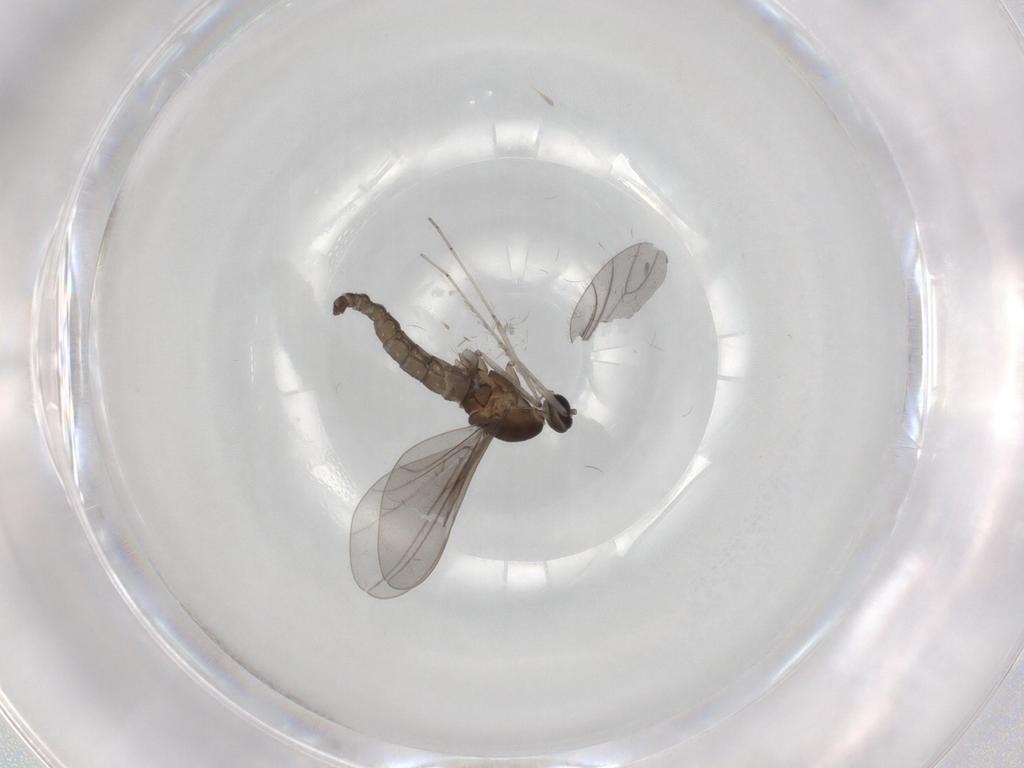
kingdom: Animalia
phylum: Arthropoda
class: Insecta
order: Diptera
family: Cecidomyiidae
